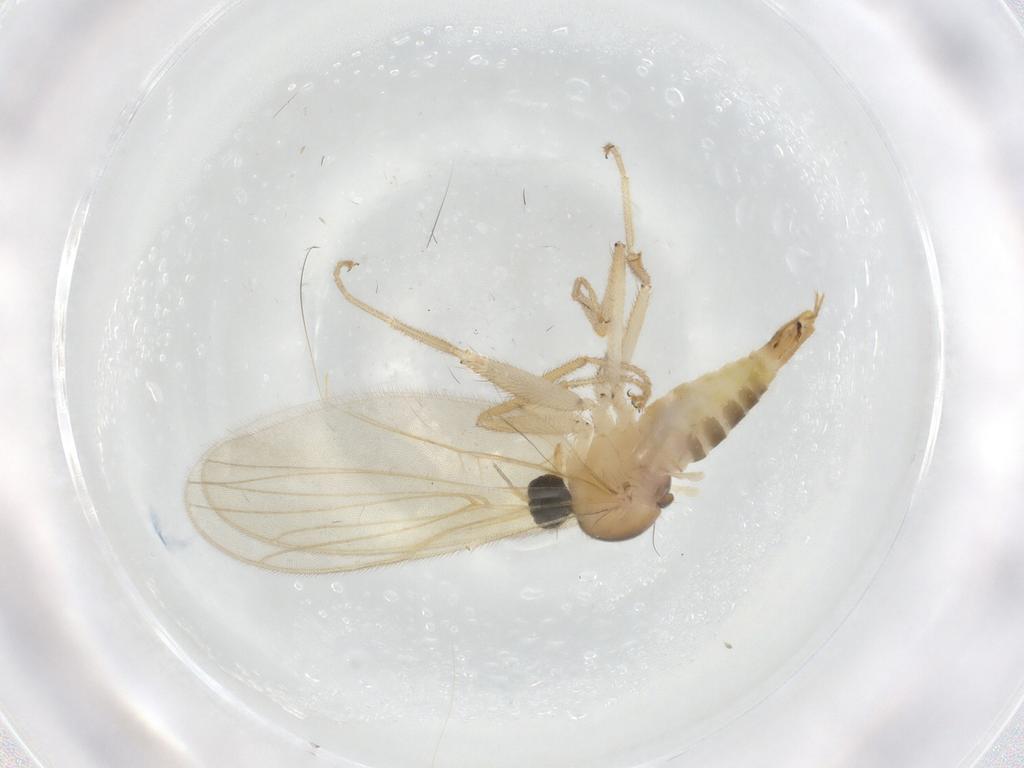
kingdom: Animalia
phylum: Arthropoda
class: Insecta
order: Diptera
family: Hybotidae
